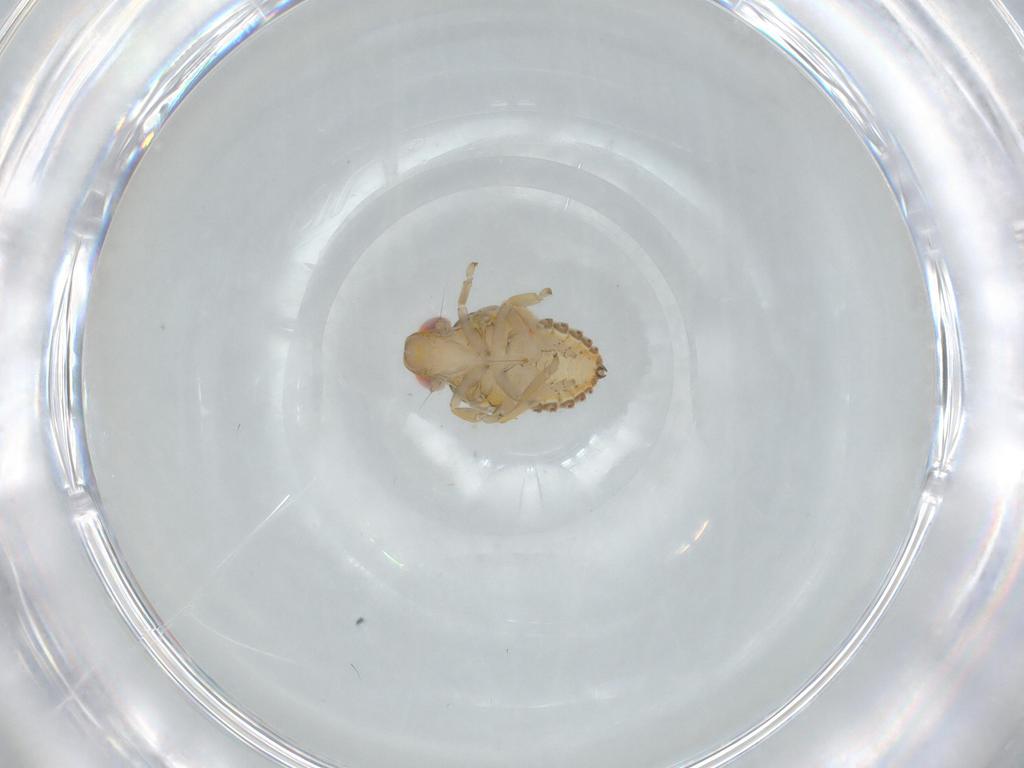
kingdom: Animalia
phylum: Arthropoda
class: Insecta
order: Hemiptera
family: Issidae
